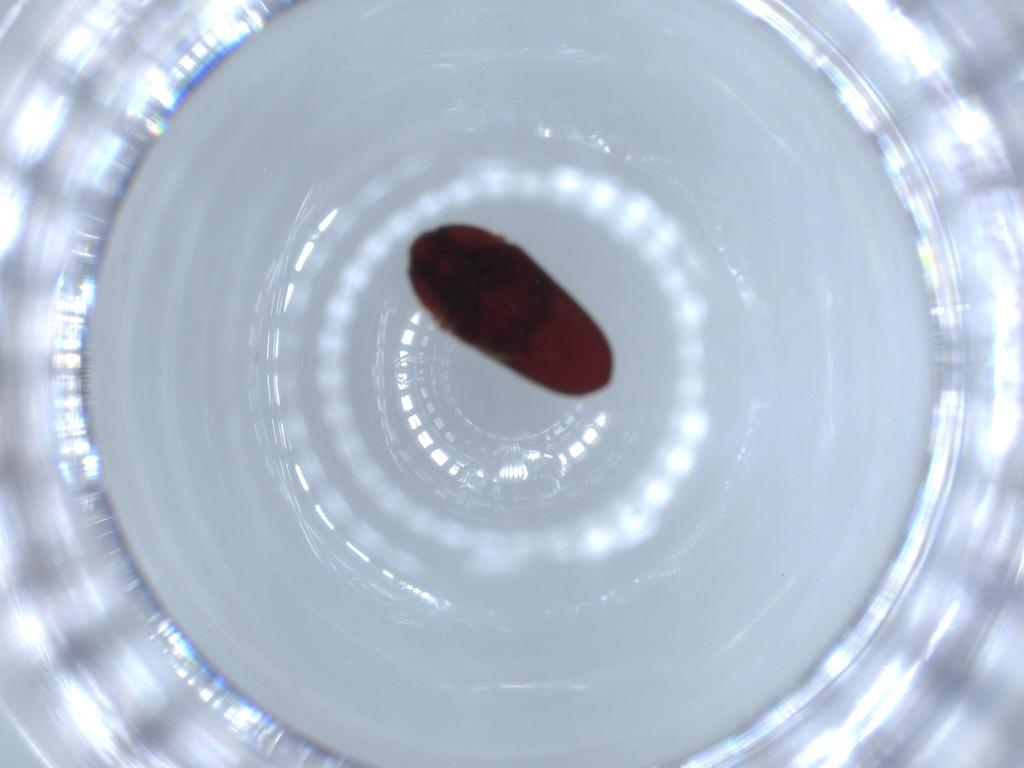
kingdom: Animalia
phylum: Arthropoda
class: Insecta
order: Coleoptera
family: Throscidae
